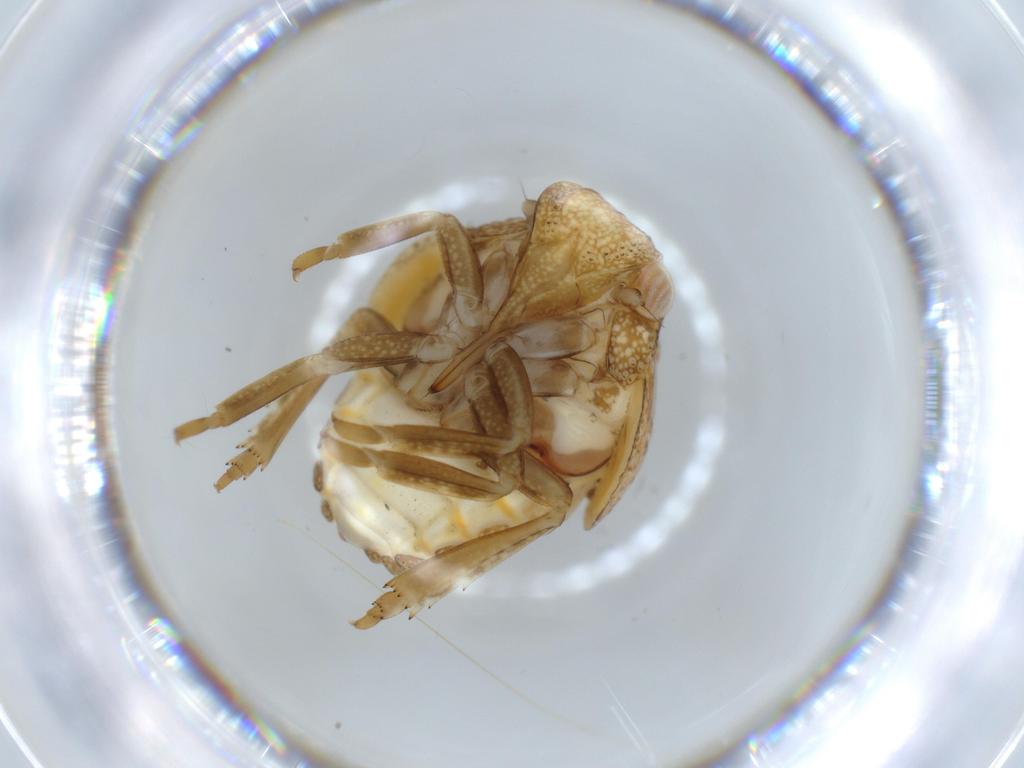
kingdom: Animalia
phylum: Arthropoda
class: Insecta
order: Hemiptera
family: Acanaloniidae
